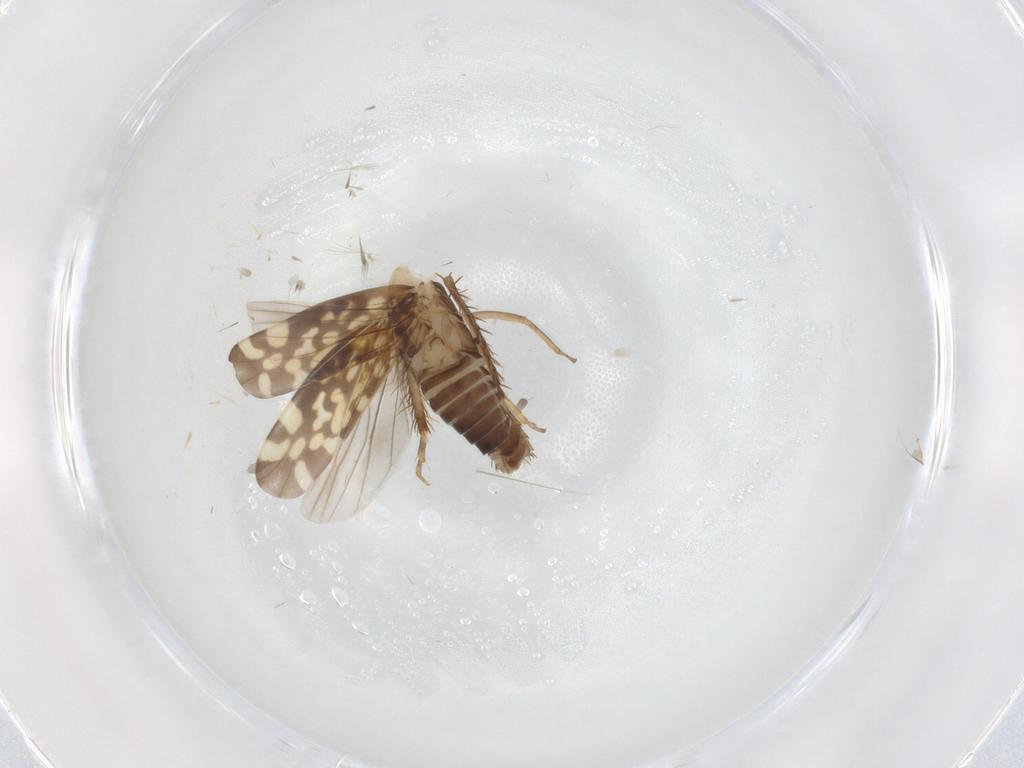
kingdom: Animalia
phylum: Arthropoda
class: Insecta
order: Hemiptera
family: Cicadellidae
